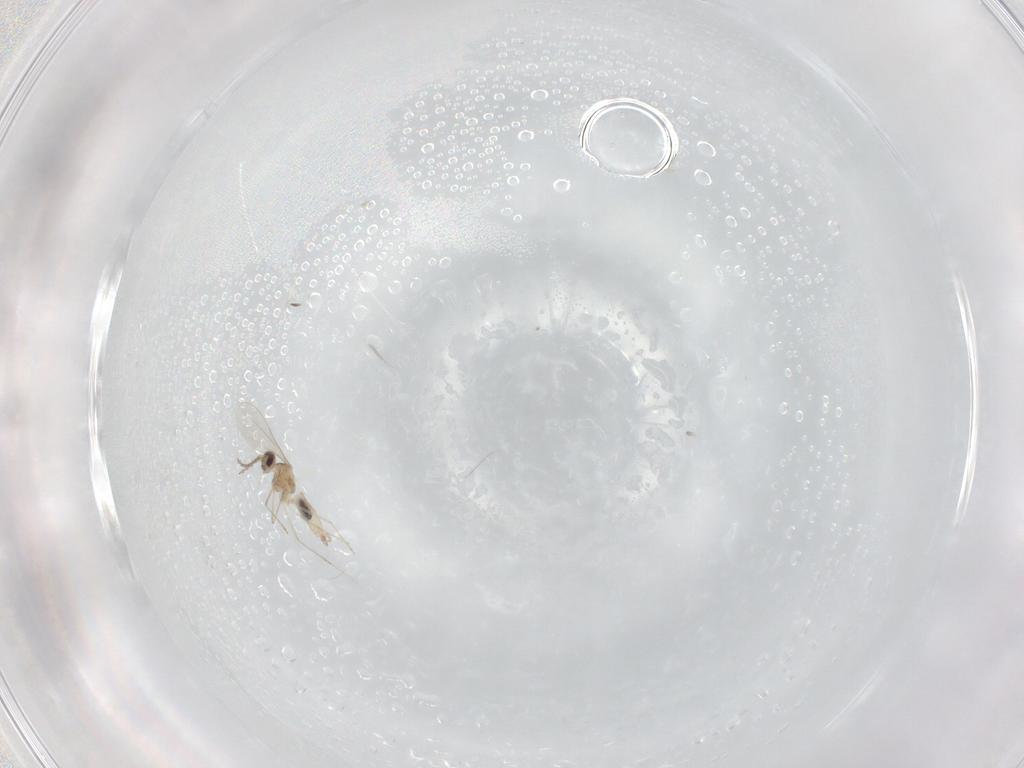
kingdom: Animalia
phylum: Arthropoda
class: Insecta
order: Diptera
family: Cecidomyiidae
